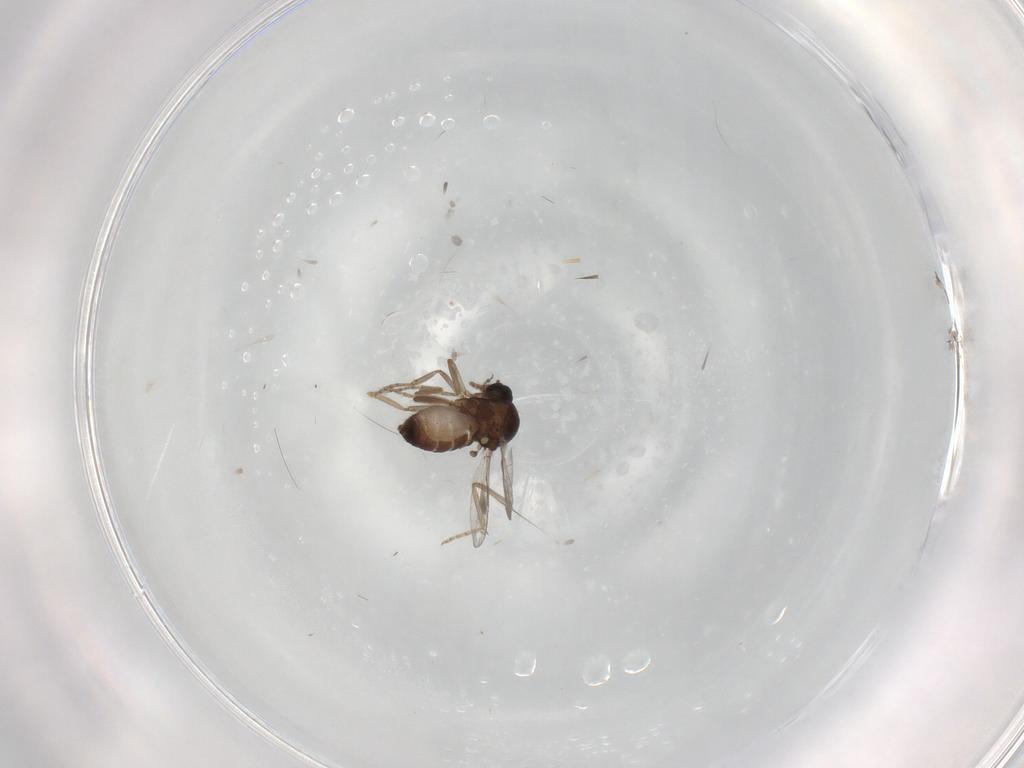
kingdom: Animalia
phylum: Arthropoda
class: Insecta
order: Diptera
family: Ceratopogonidae
